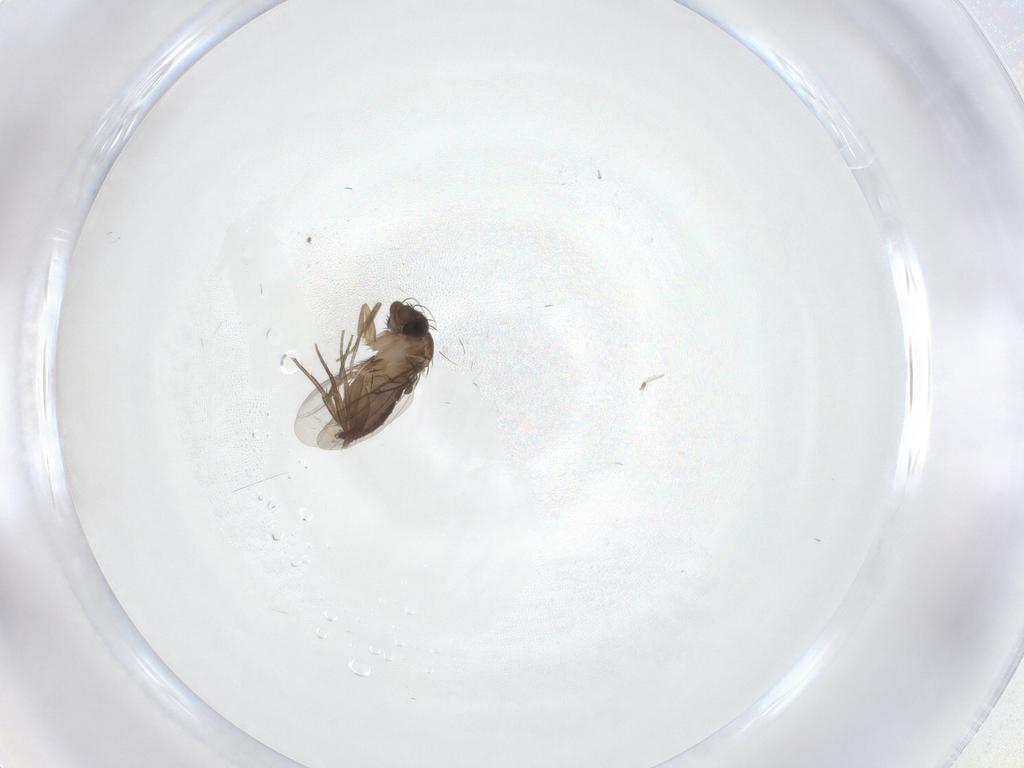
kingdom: Animalia
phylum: Arthropoda
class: Insecta
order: Diptera
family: Phoridae
